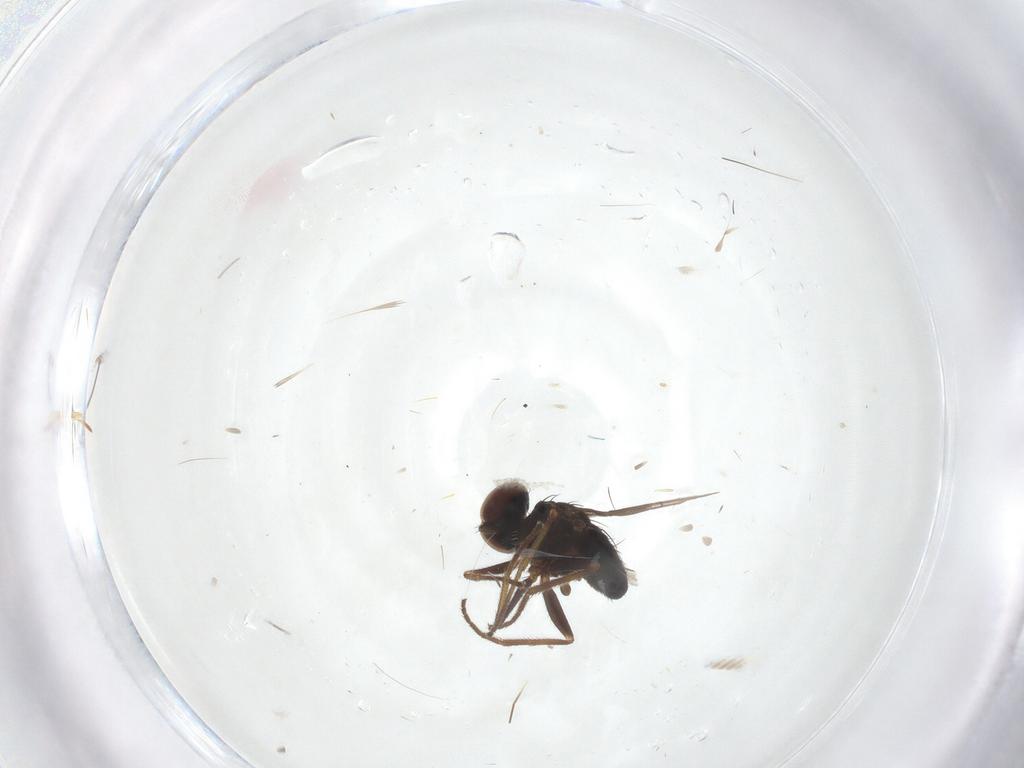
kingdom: Animalia
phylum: Arthropoda
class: Insecta
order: Diptera
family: Dolichopodidae
